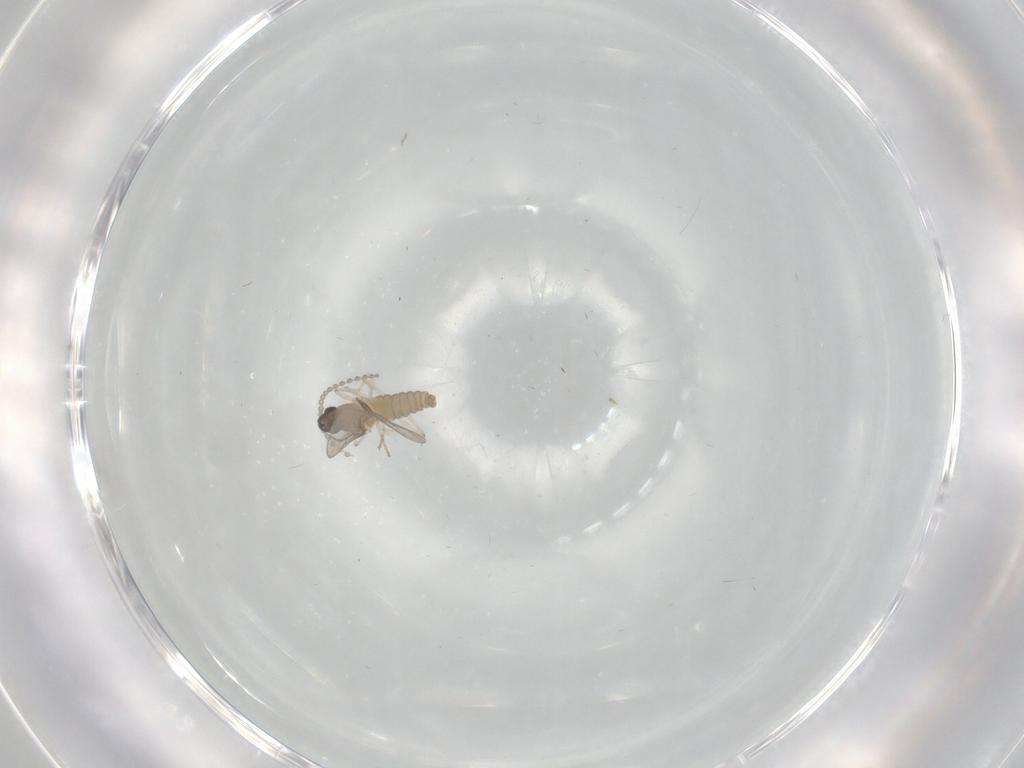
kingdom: Animalia
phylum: Arthropoda
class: Insecta
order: Diptera
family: Cecidomyiidae
